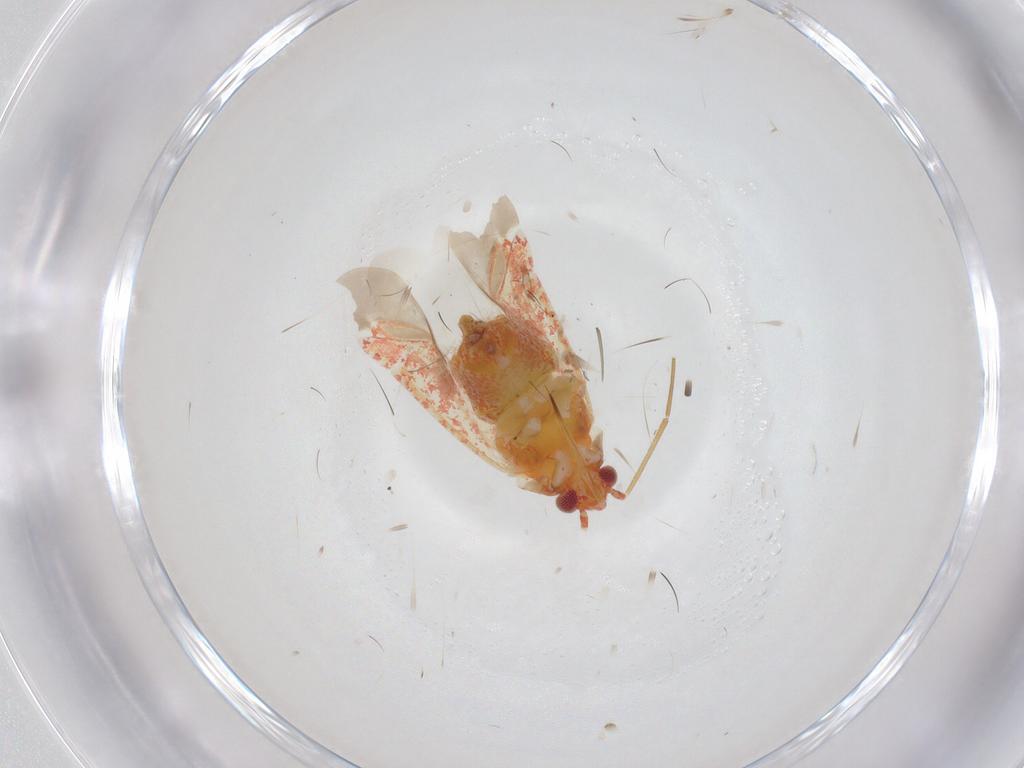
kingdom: Animalia
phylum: Arthropoda
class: Insecta
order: Hemiptera
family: Miridae
